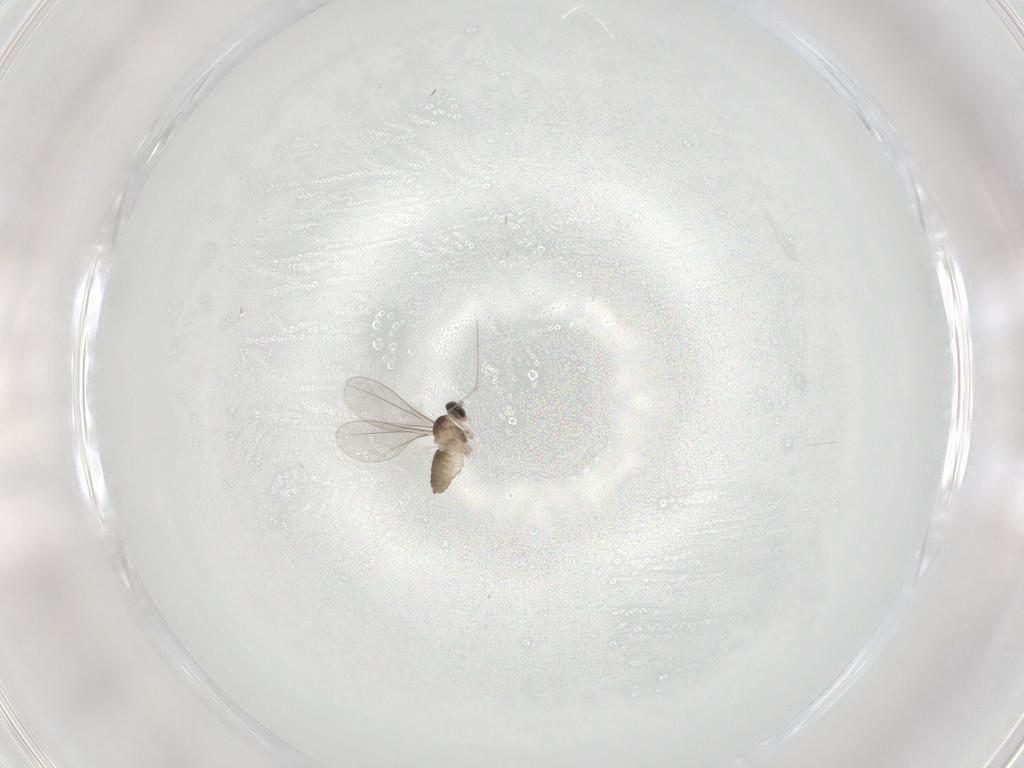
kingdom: Animalia
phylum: Arthropoda
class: Insecta
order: Diptera
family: Cecidomyiidae
